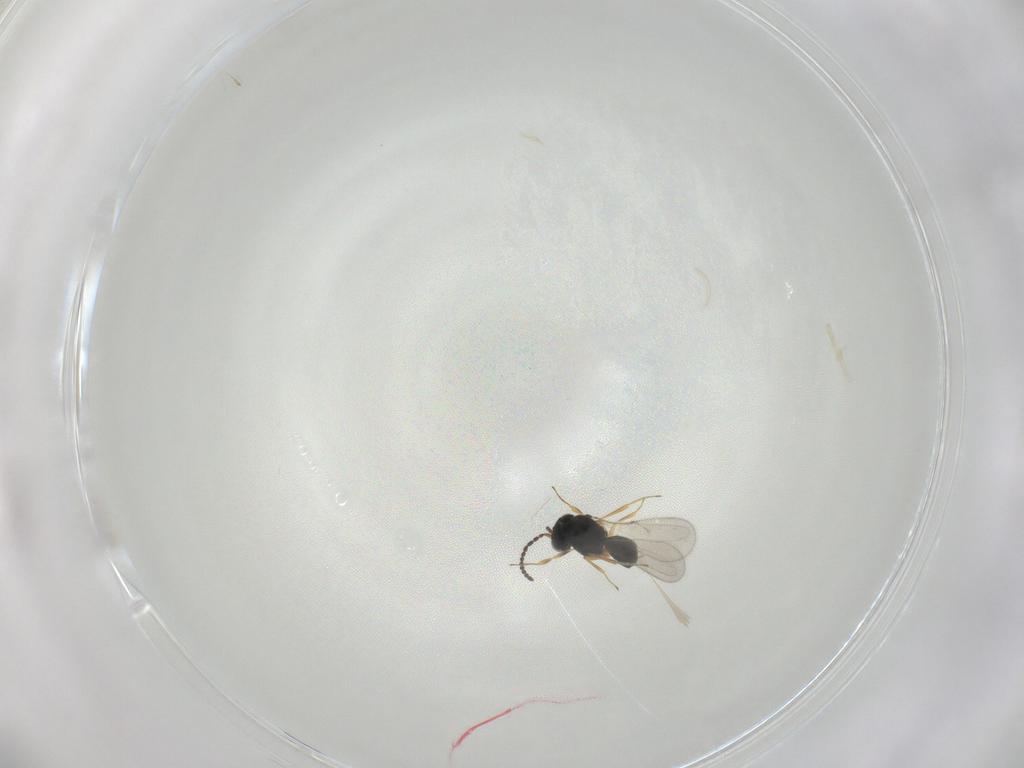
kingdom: Animalia
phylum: Arthropoda
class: Insecta
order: Hymenoptera
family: Scelionidae
